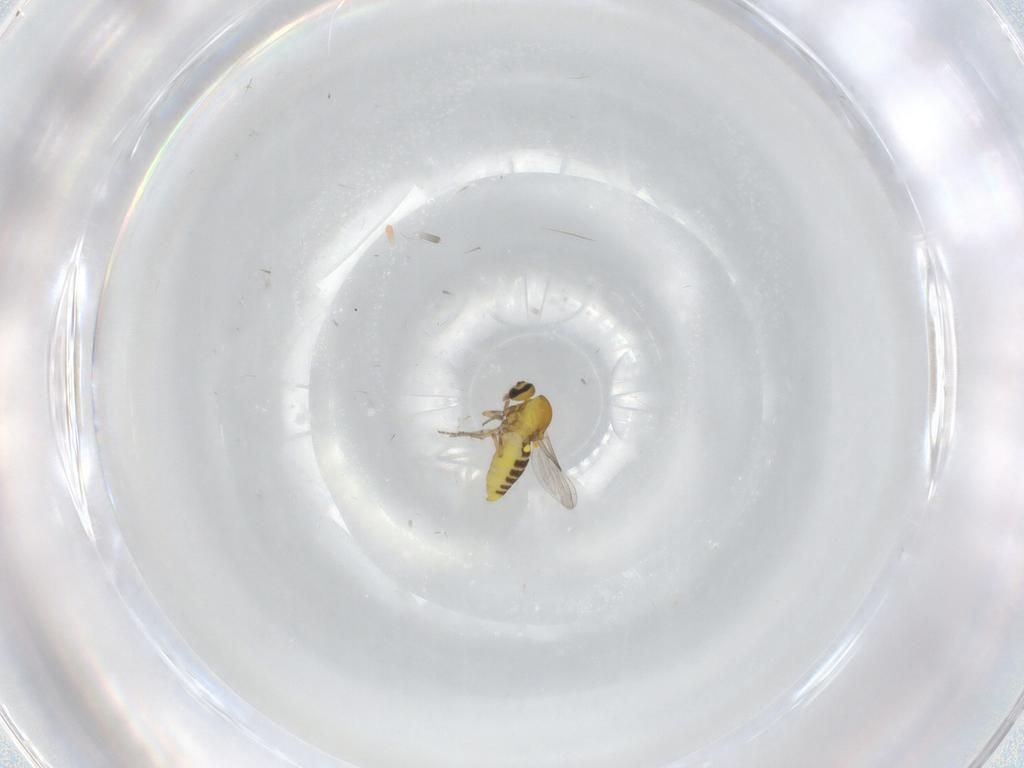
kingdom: Animalia
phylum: Arthropoda
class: Insecta
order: Diptera
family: Ceratopogonidae
